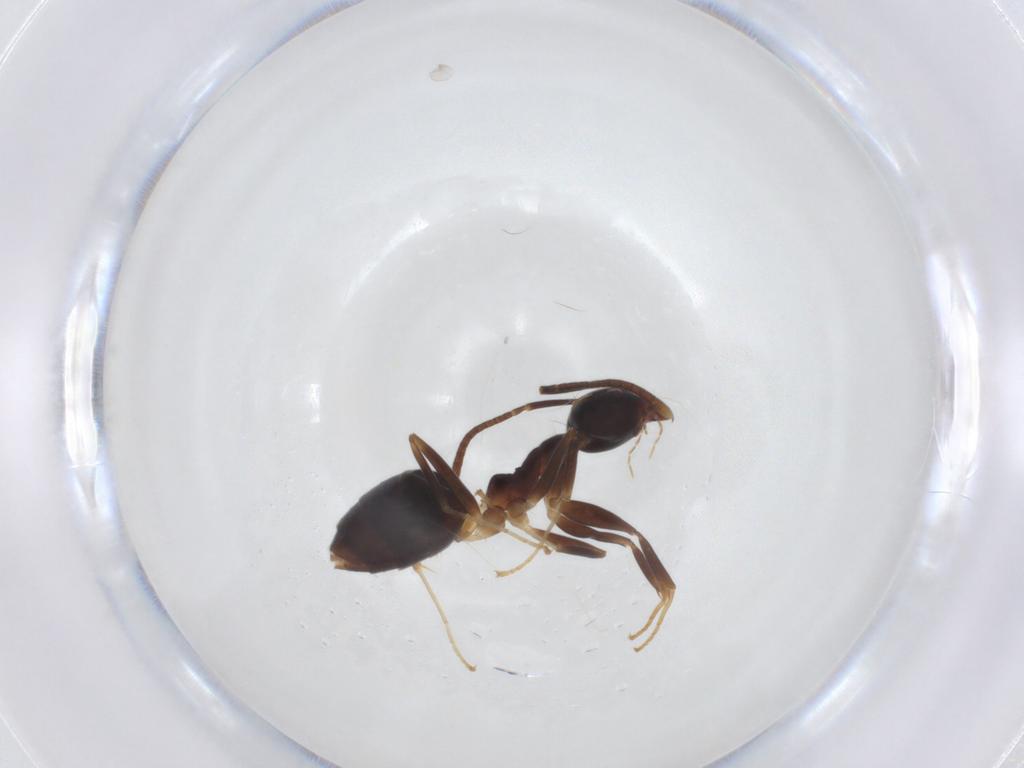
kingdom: Animalia
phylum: Arthropoda
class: Insecta
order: Hymenoptera
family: Formicidae
